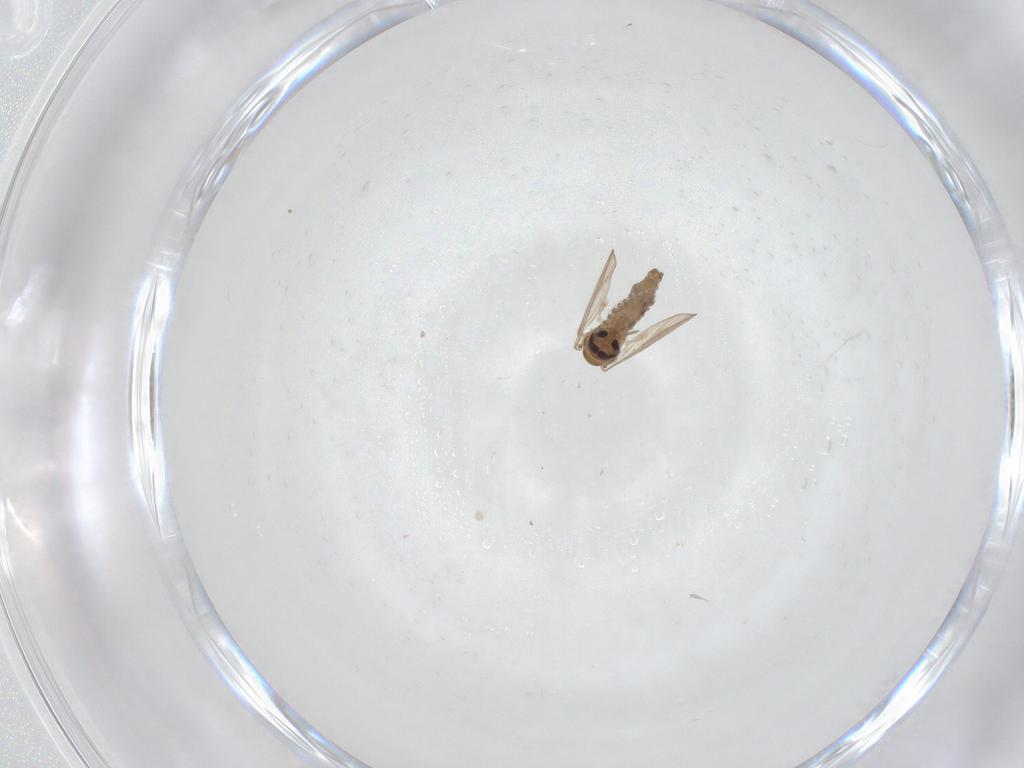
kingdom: Animalia
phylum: Arthropoda
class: Insecta
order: Diptera
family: Psychodidae
